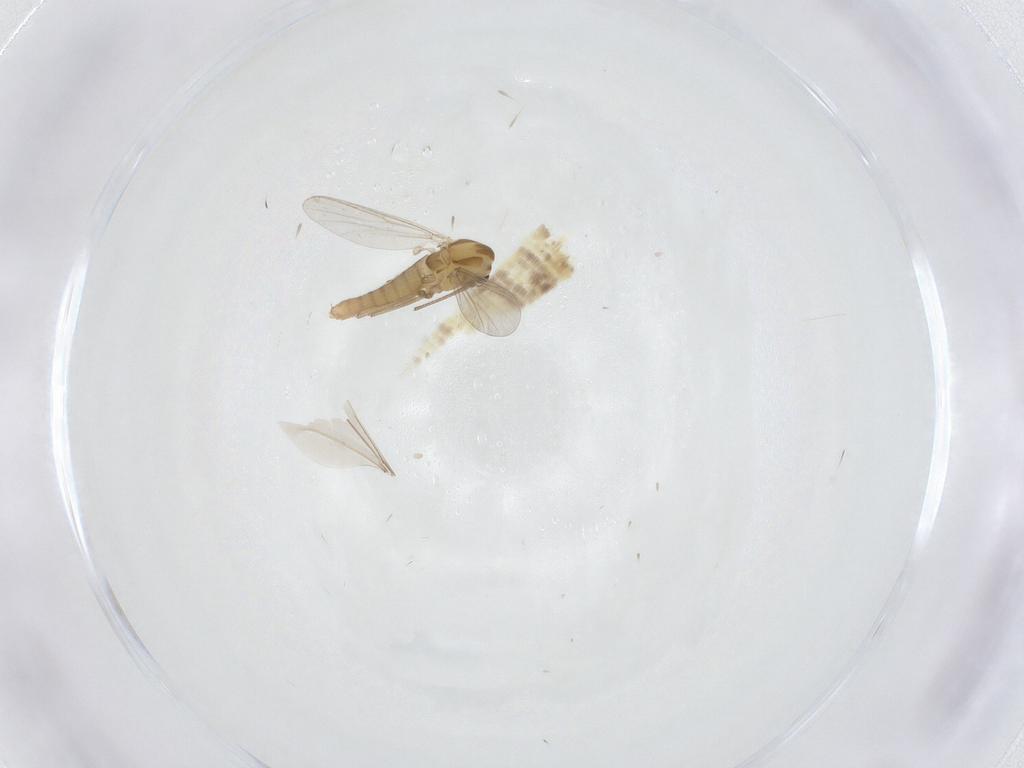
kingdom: Animalia
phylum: Arthropoda
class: Insecta
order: Diptera
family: Chironomidae
